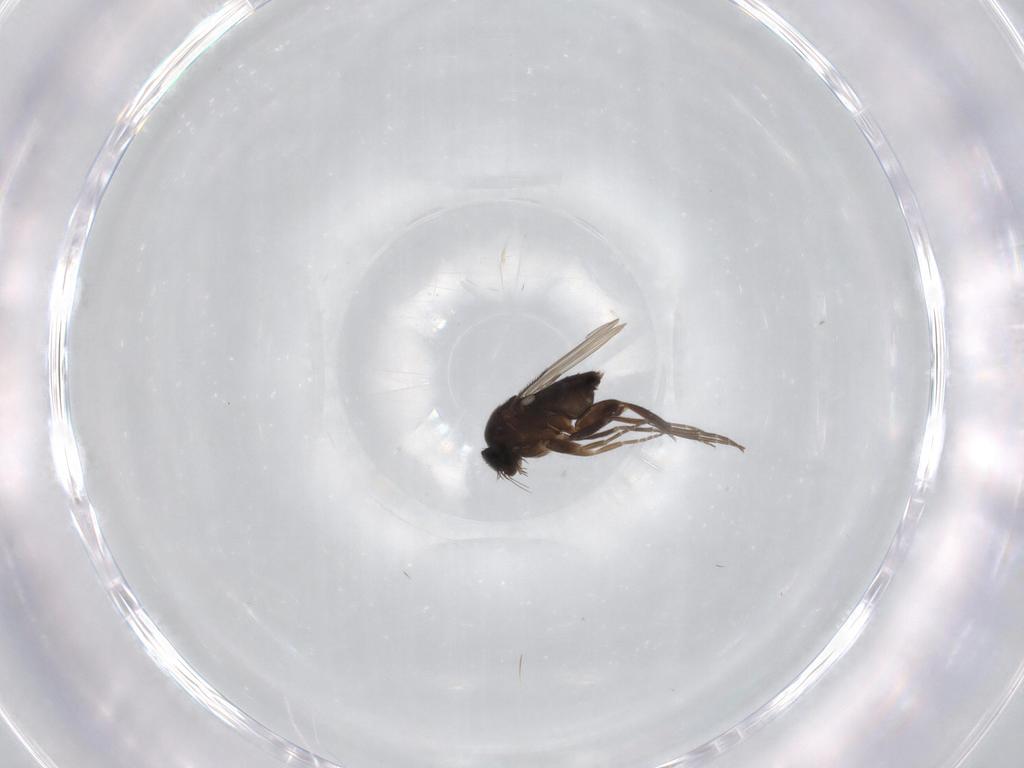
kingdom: Animalia
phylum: Arthropoda
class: Insecta
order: Diptera
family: Phoridae
